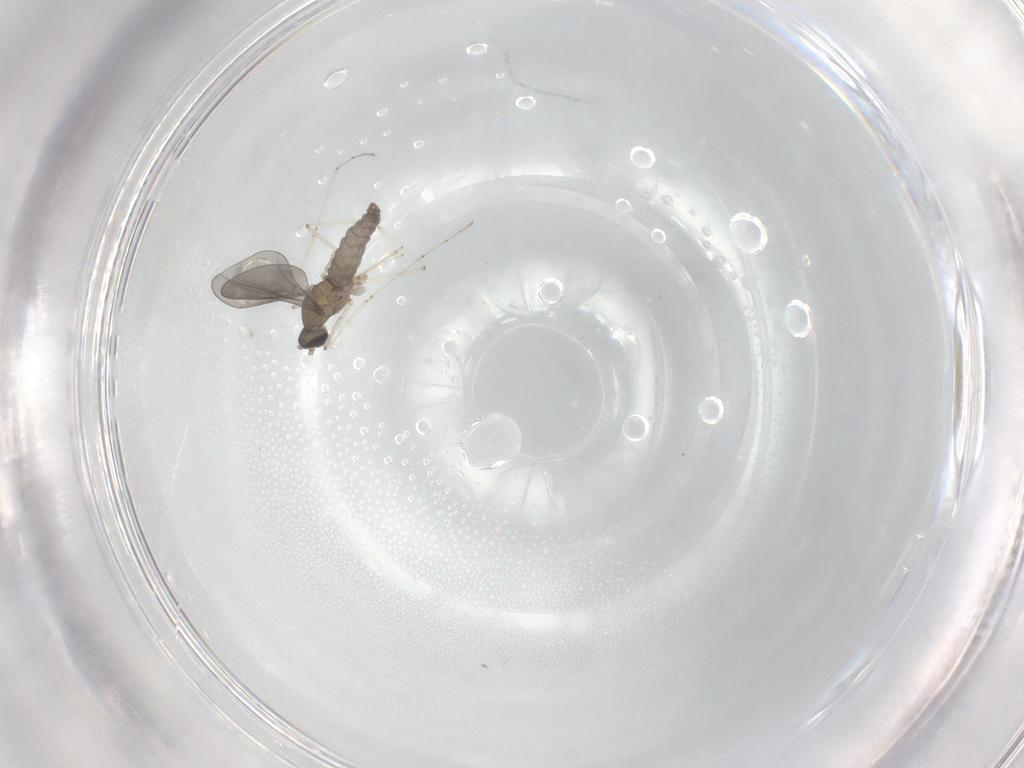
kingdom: Animalia
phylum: Arthropoda
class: Insecta
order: Diptera
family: Cecidomyiidae
